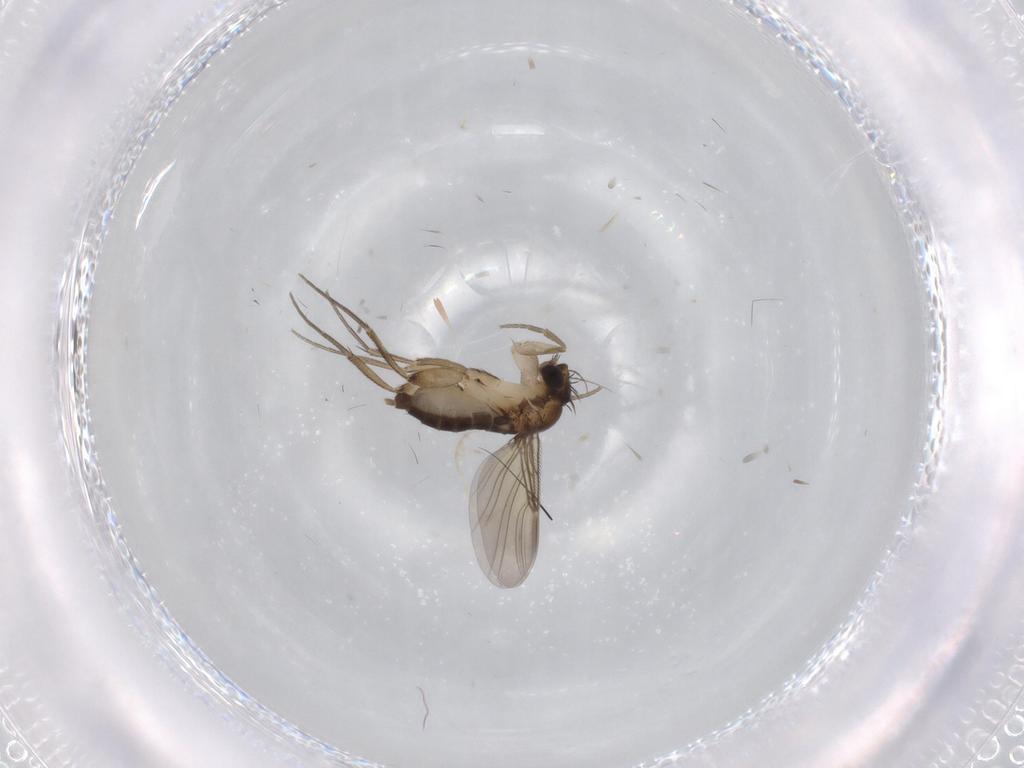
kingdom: Animalia
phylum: Arthropoda
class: Insecta
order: Diptera
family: Phoridae
